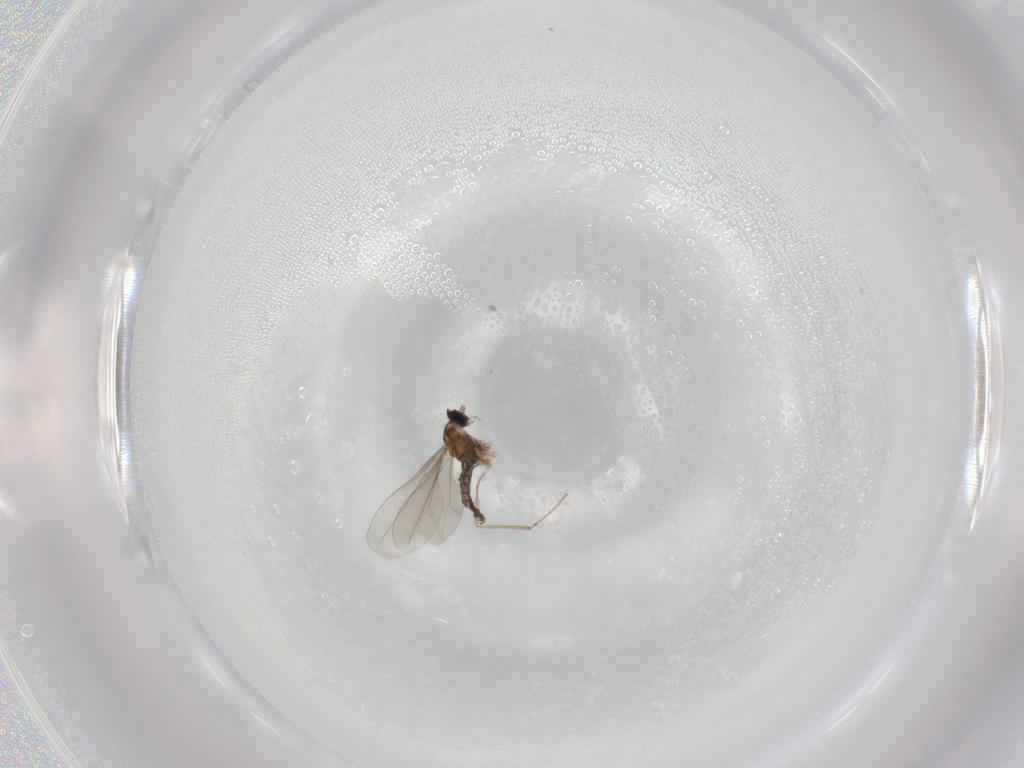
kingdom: Animalia
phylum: Arthropoda
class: Insecta
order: Diptera
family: Cecidomyiidae
